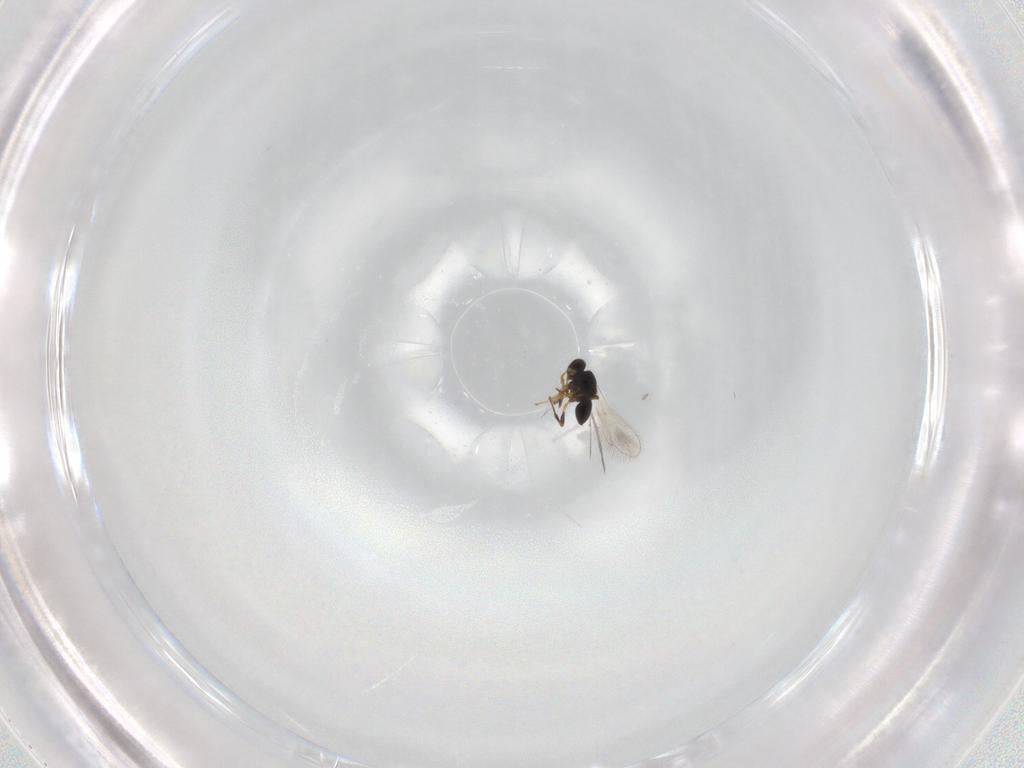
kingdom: Animalia
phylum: Arthropoda
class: Insecta
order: Hymenoptera
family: Platygastridae
